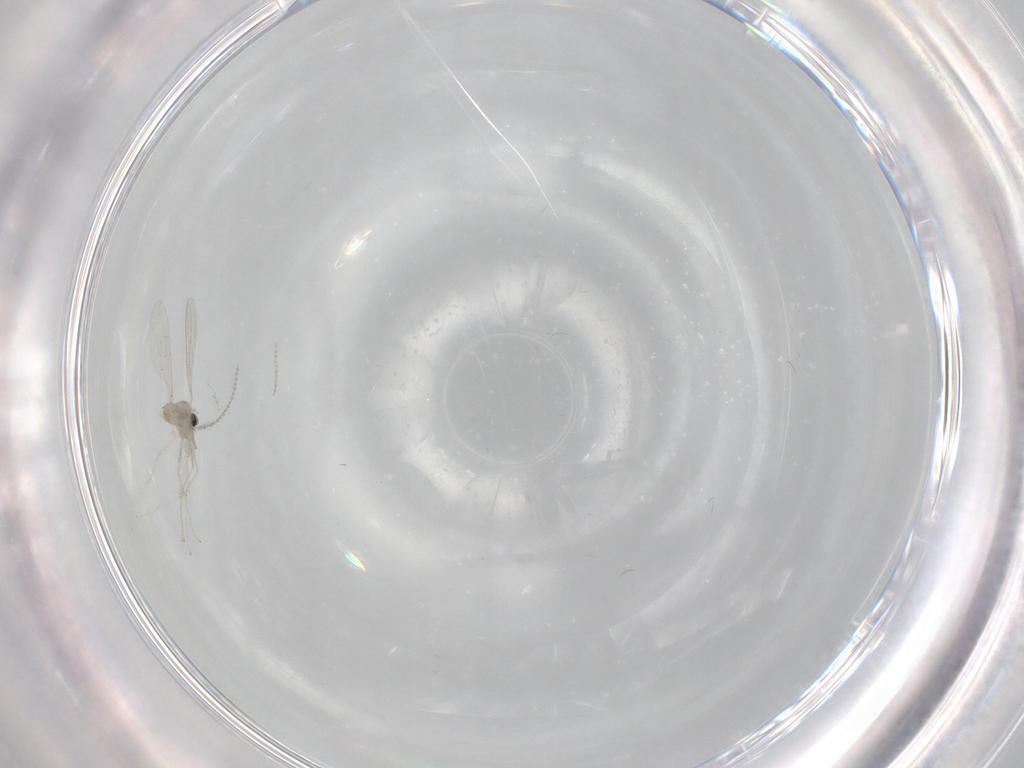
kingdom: Animalia
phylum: Arthropoda
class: Insecta
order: Diptera
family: Cecidomyiidae
